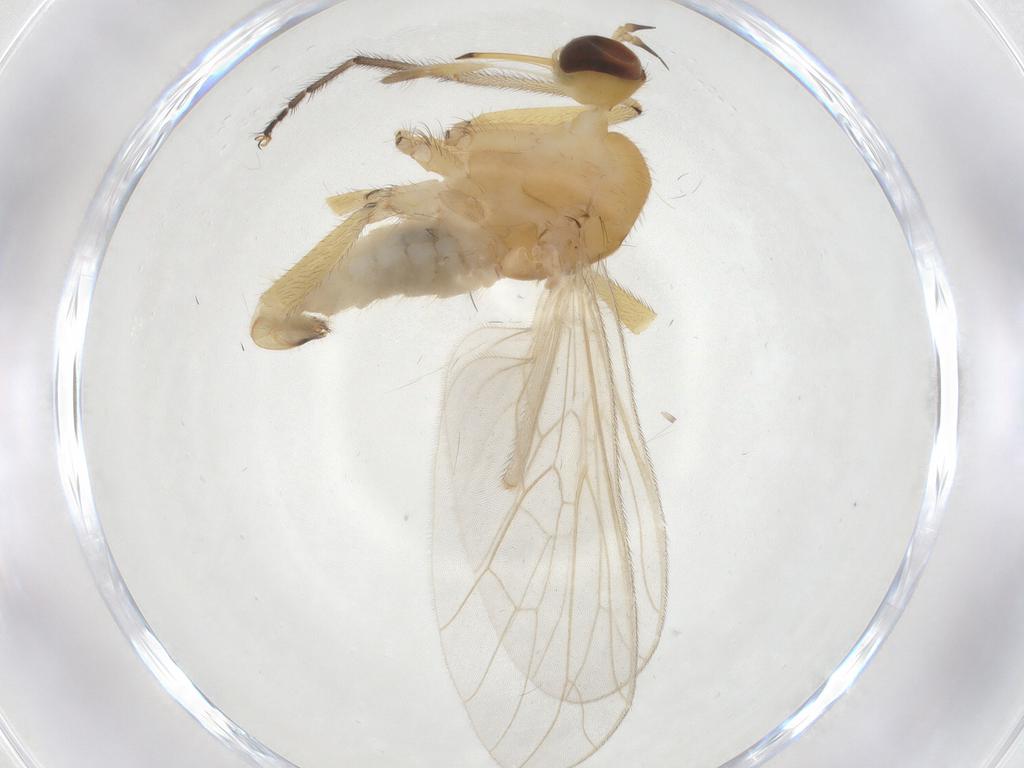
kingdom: Animalia
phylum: Arthropoda
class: Insecta
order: Diptera
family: Empididae
